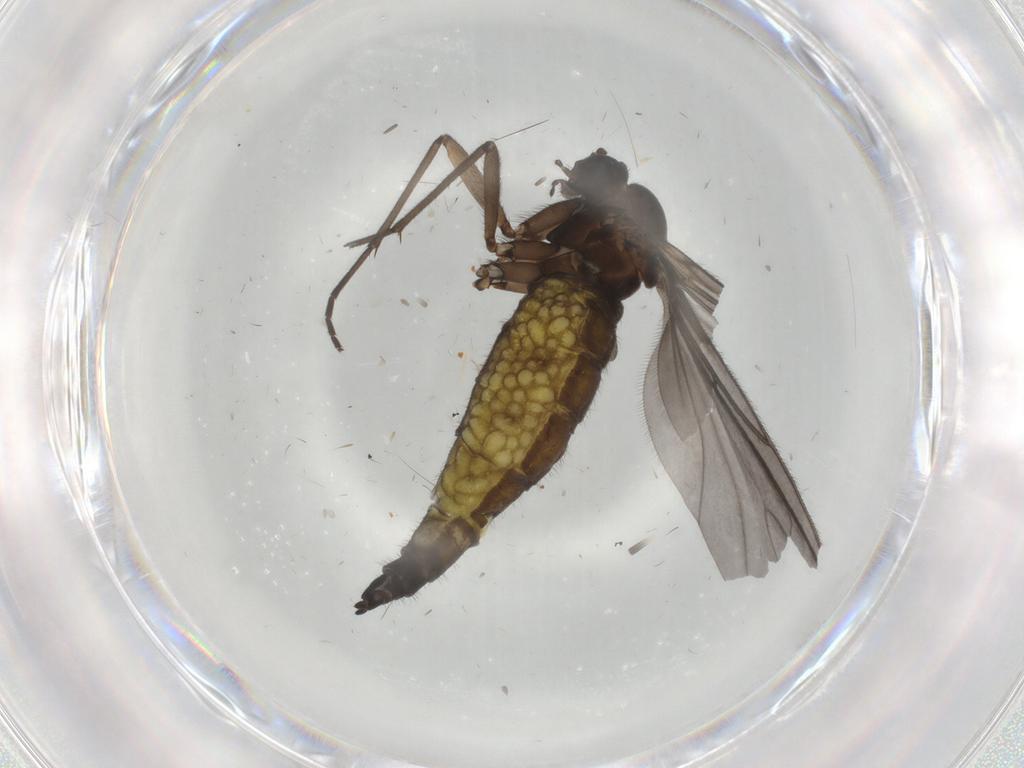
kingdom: Animalia
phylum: Arthropoda
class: Insecta
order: Diptera
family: Sciaridae
